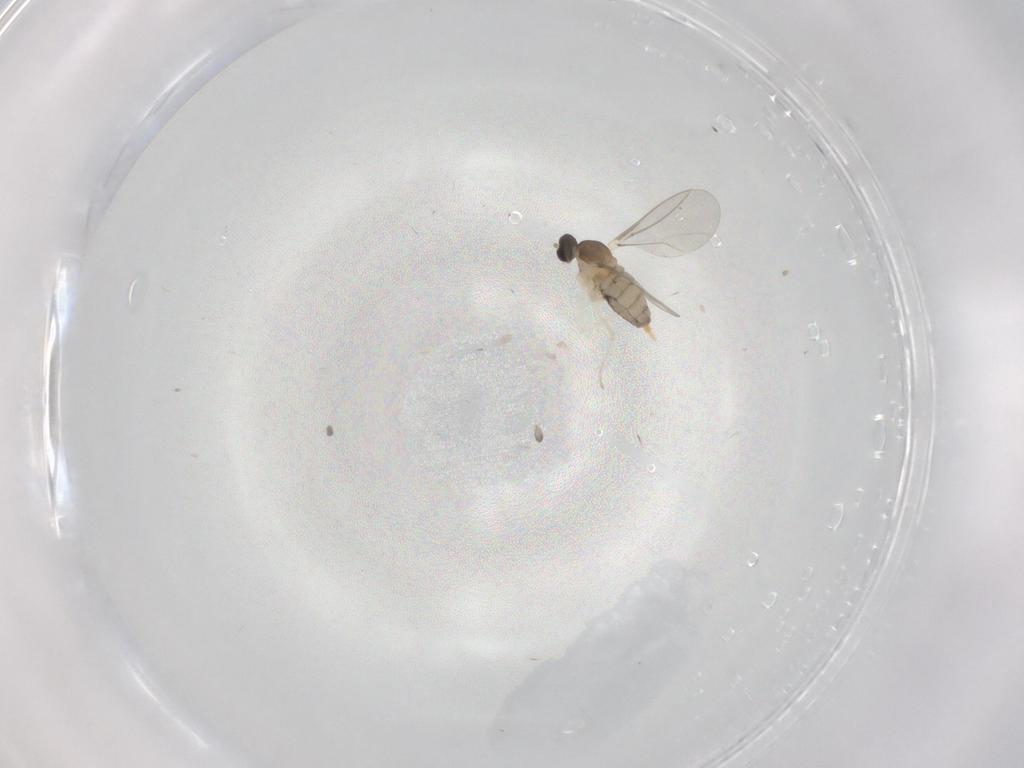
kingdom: Animalia
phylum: Arthropoda
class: Insecta
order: Diptera
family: Cecidomyiidae
